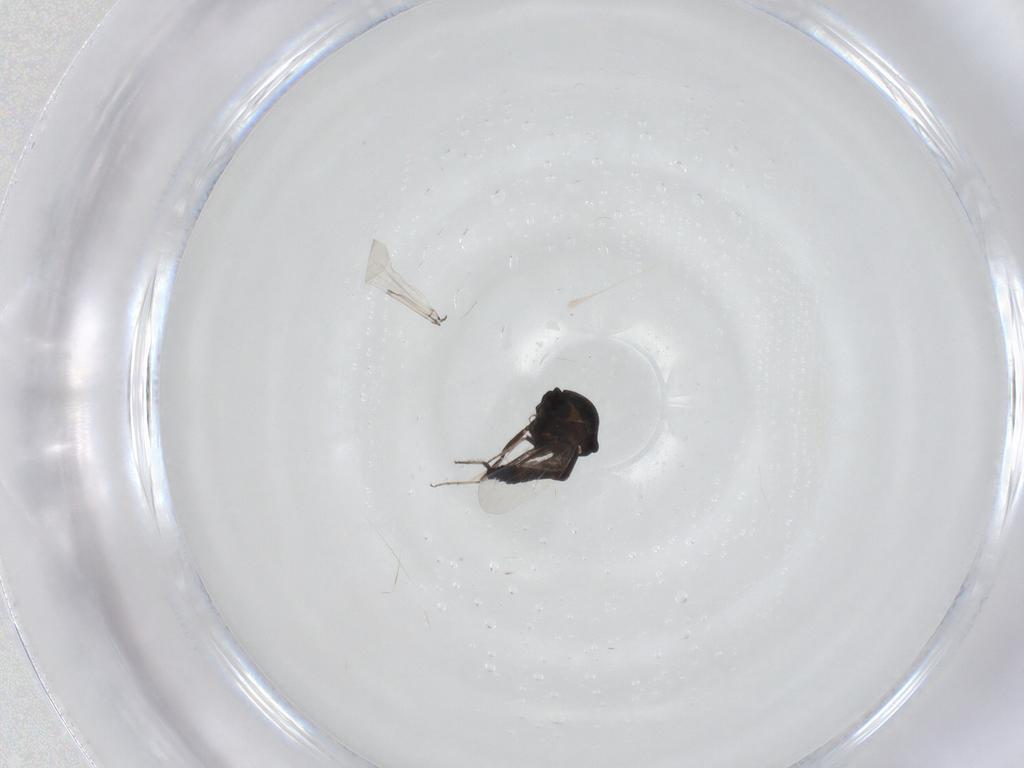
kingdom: Animalia
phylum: Arthropoda
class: Insecta
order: Diptera
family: Ceratopogonidae
